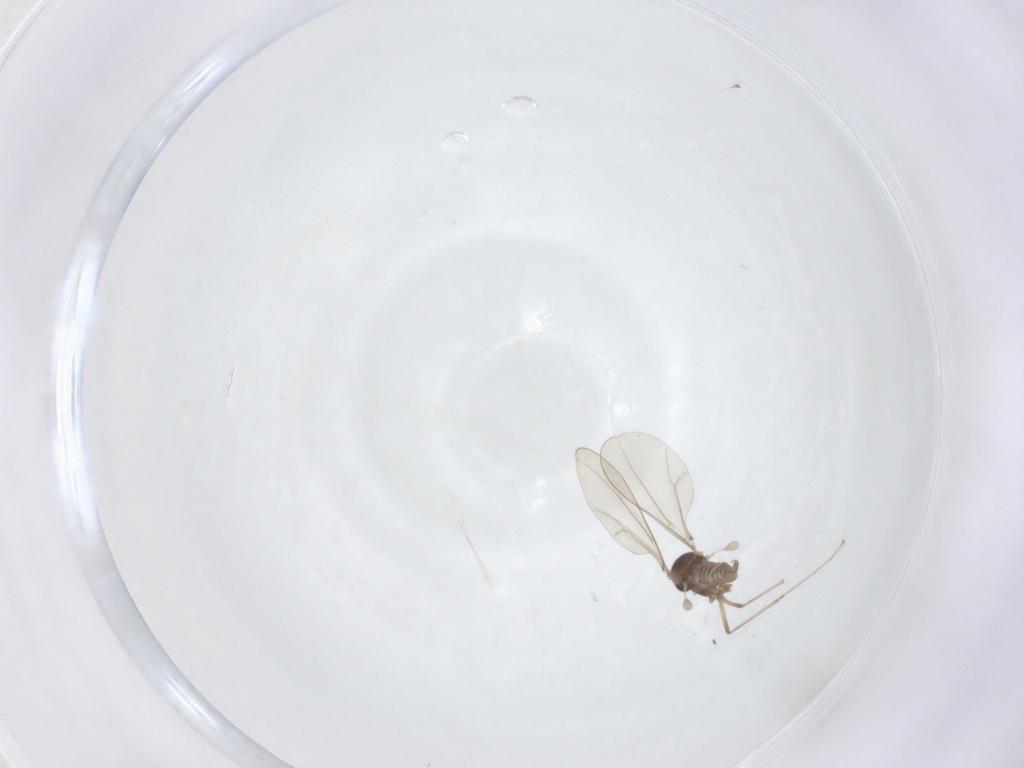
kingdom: Animalia
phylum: Arthropoda
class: Insecta
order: Diptera
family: Cecidomyiidae
